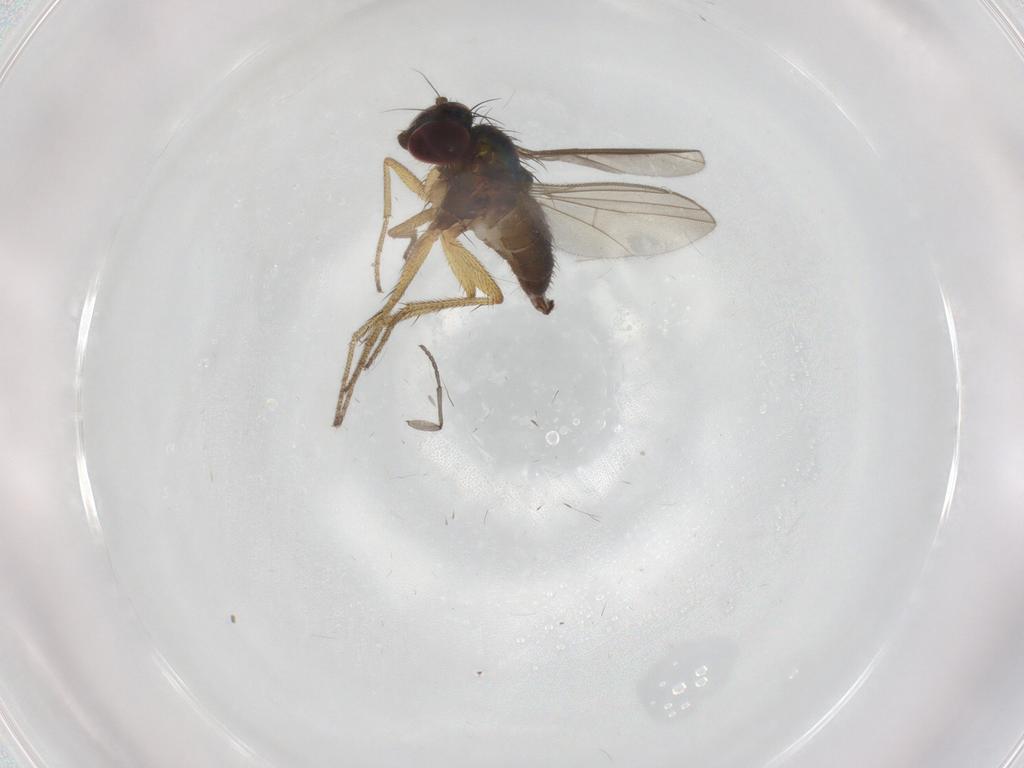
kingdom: Animalia
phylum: Arthropoda
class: Insecta
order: Diptera
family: Sciaridae
